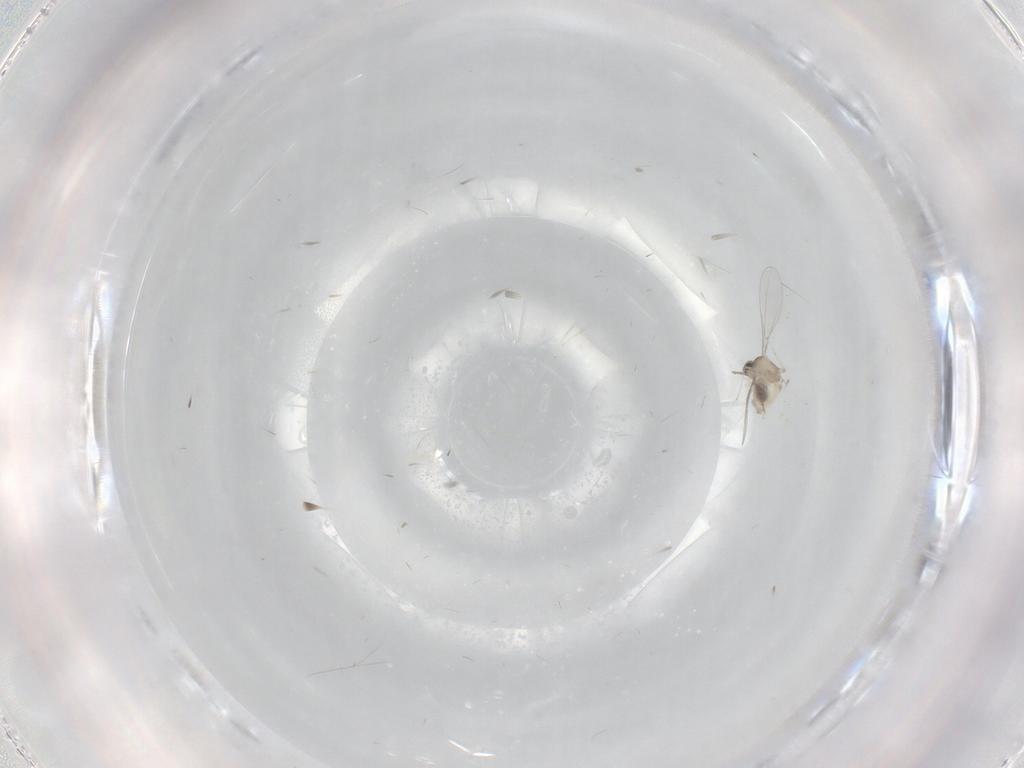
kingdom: Animalia
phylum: Arthropoda
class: Insecta
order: Diptera
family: Cecidomyiidae
